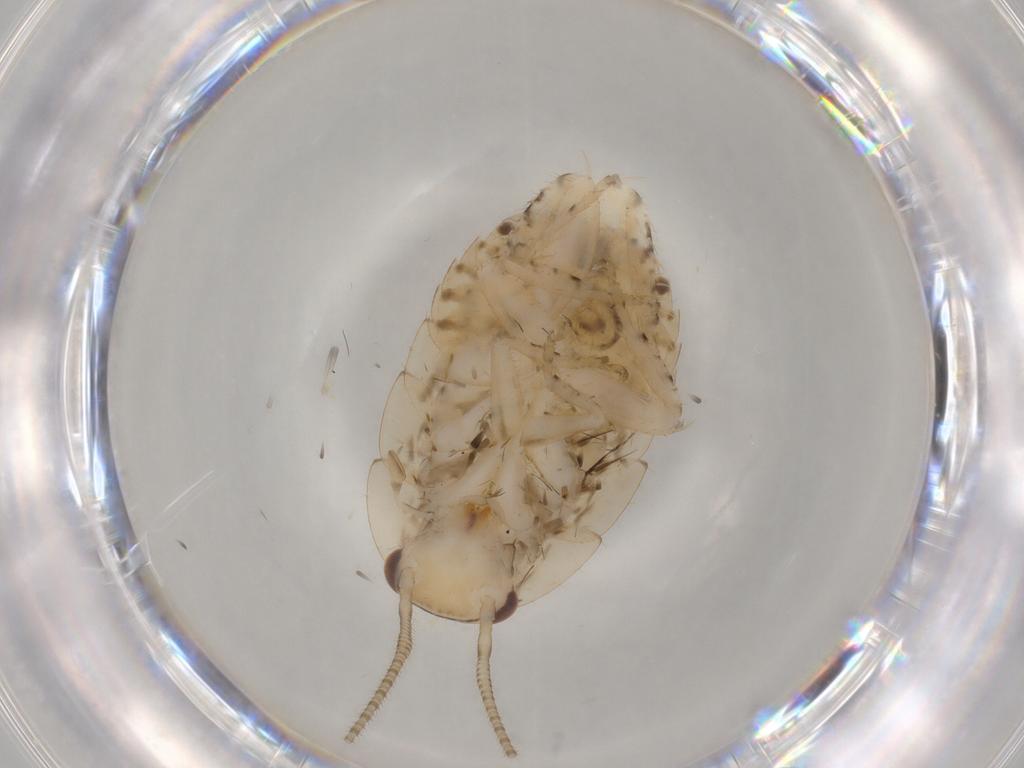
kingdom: Animalia
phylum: Arthropoda
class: Insecta
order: Blattodea
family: Ectobiidae
